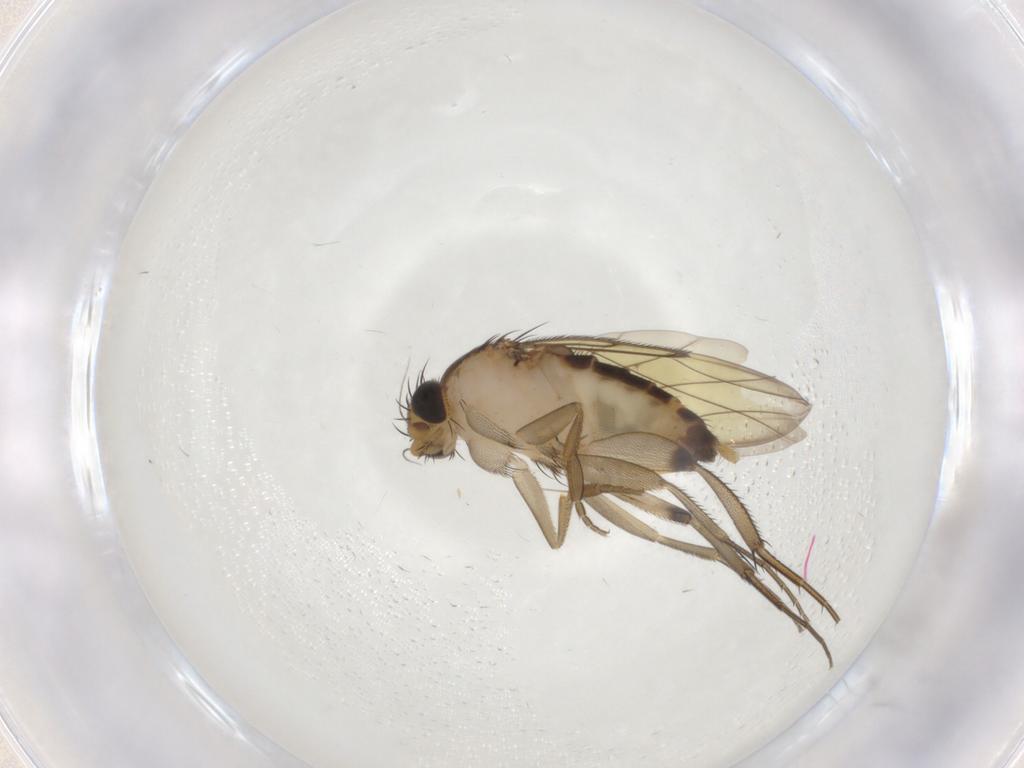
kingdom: Animalia
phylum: Arthropoda
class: Insecta
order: Diptera
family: Phoridae
